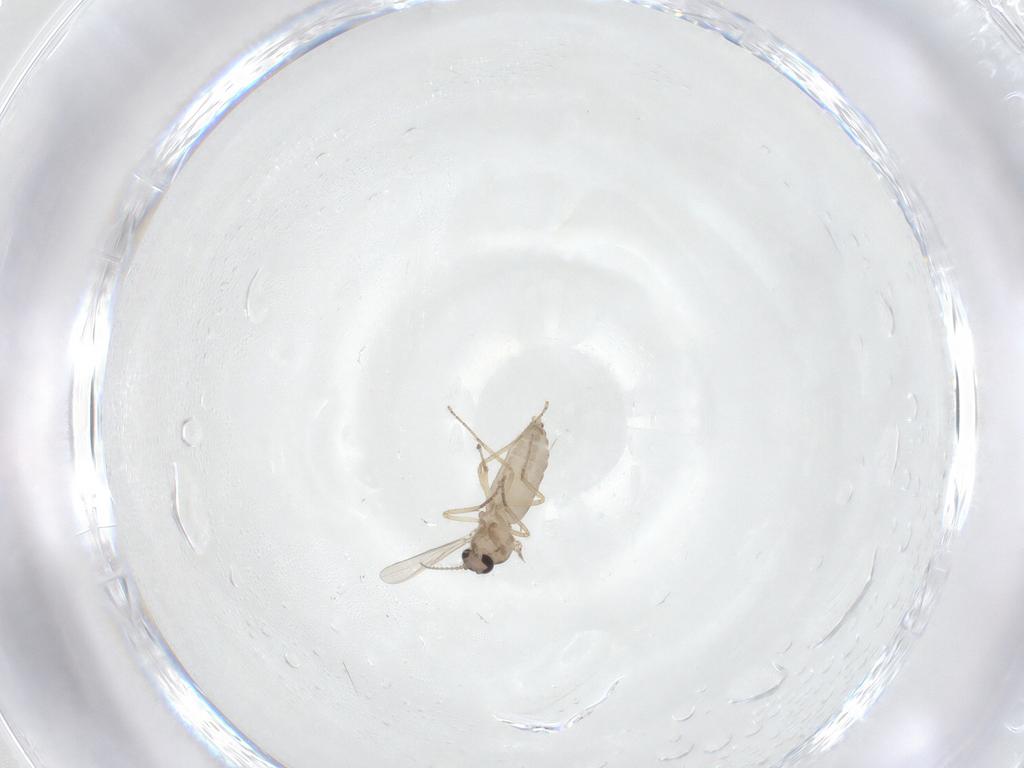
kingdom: Animalia
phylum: Arthropoda
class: Insecta
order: Diptera
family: Ceratopogonidae
